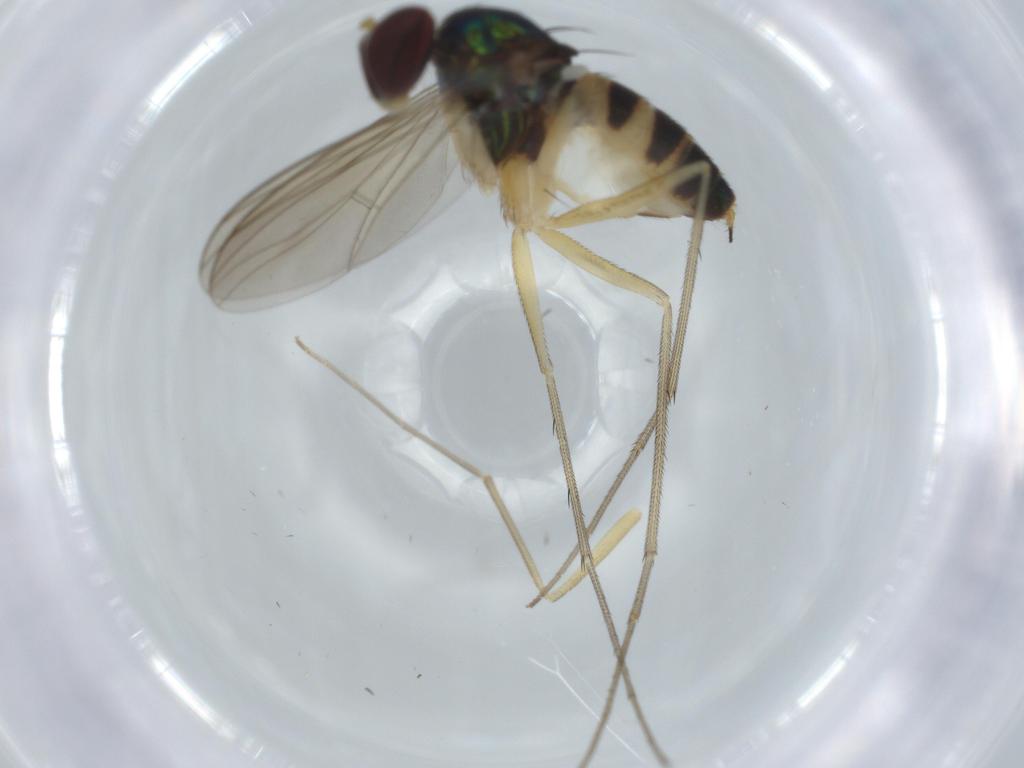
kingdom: Animalia
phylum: Arthropoda
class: Insecta
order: Diptera
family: Dolichopodidae
